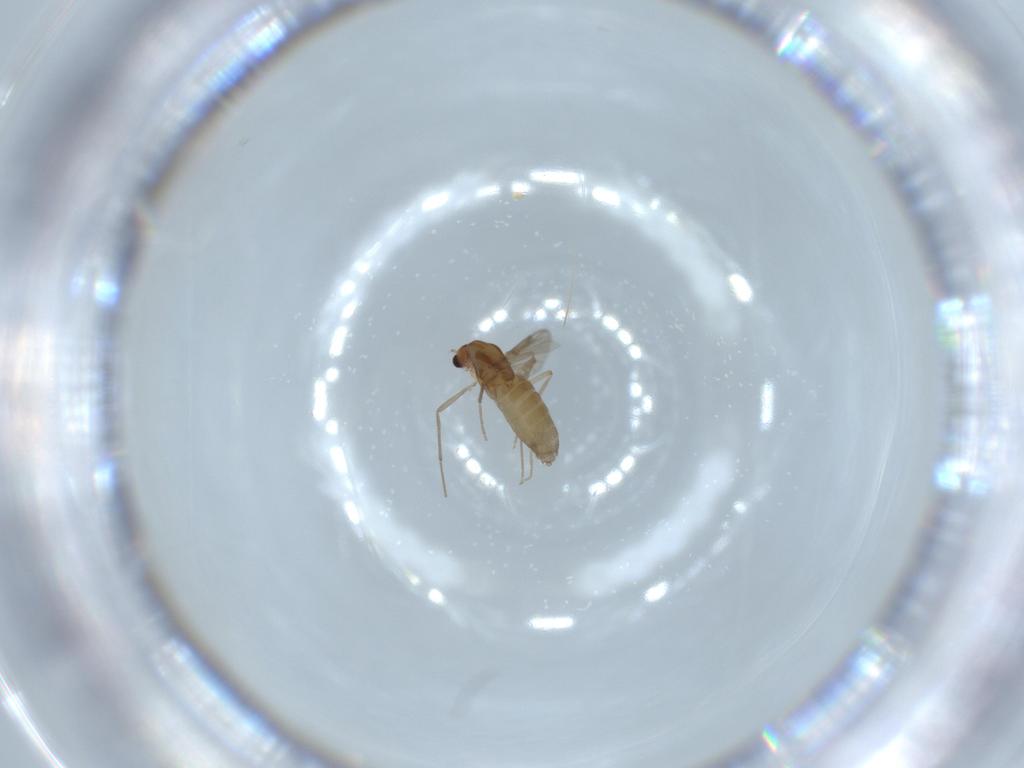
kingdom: Animalia
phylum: Arthropoda
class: Insecta
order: Diptera
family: Chironomidae
